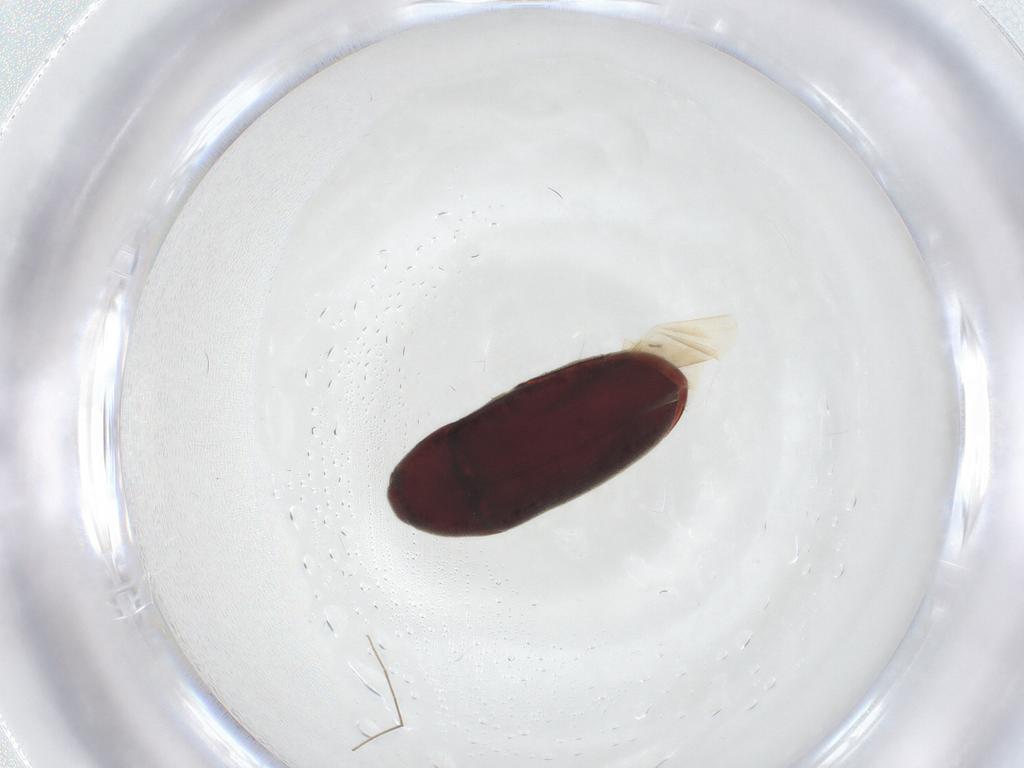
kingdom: Animalia
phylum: Arthropoda
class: Insecta
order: Coleoptera
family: Throscidae
